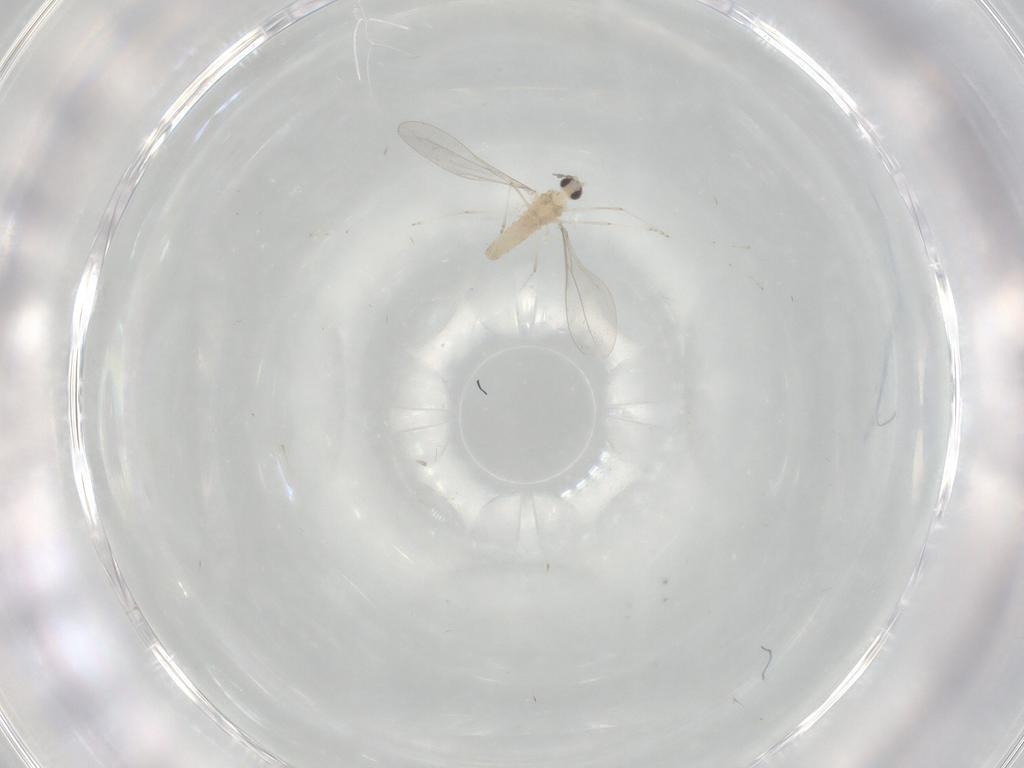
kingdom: Animalia
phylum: Arthropoda
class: Insecta
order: Diptera
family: Cecidomyiidae
